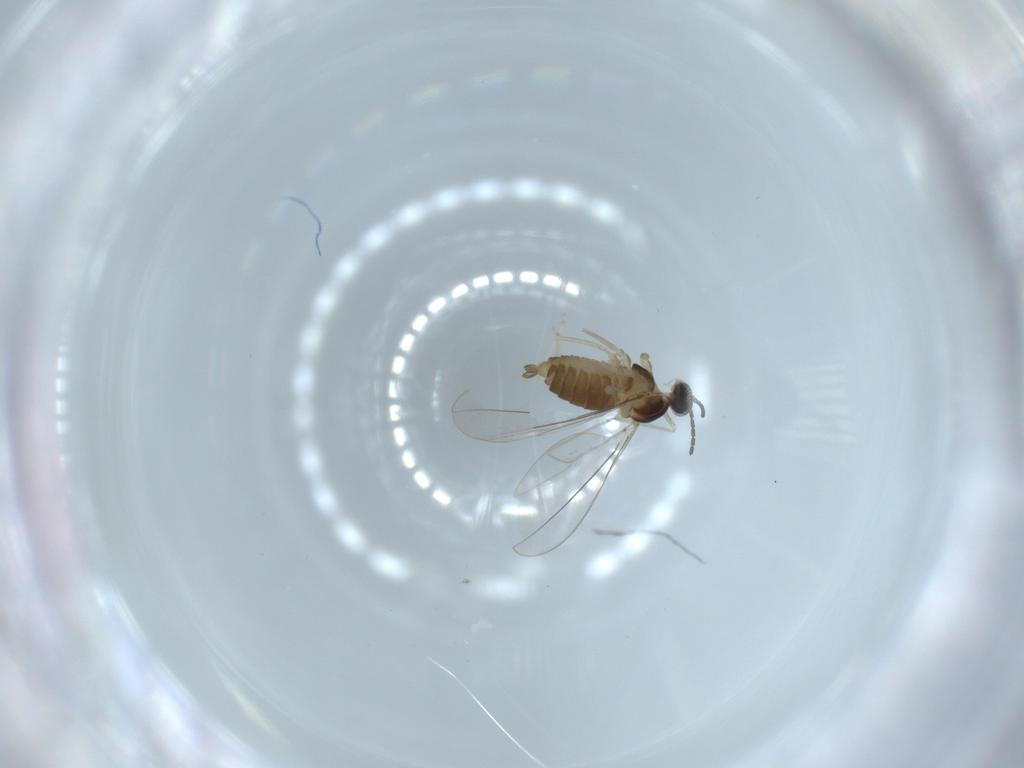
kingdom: Animalia
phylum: Arthropoda
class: Insecta
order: Diptera
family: Cecidomyiidae
